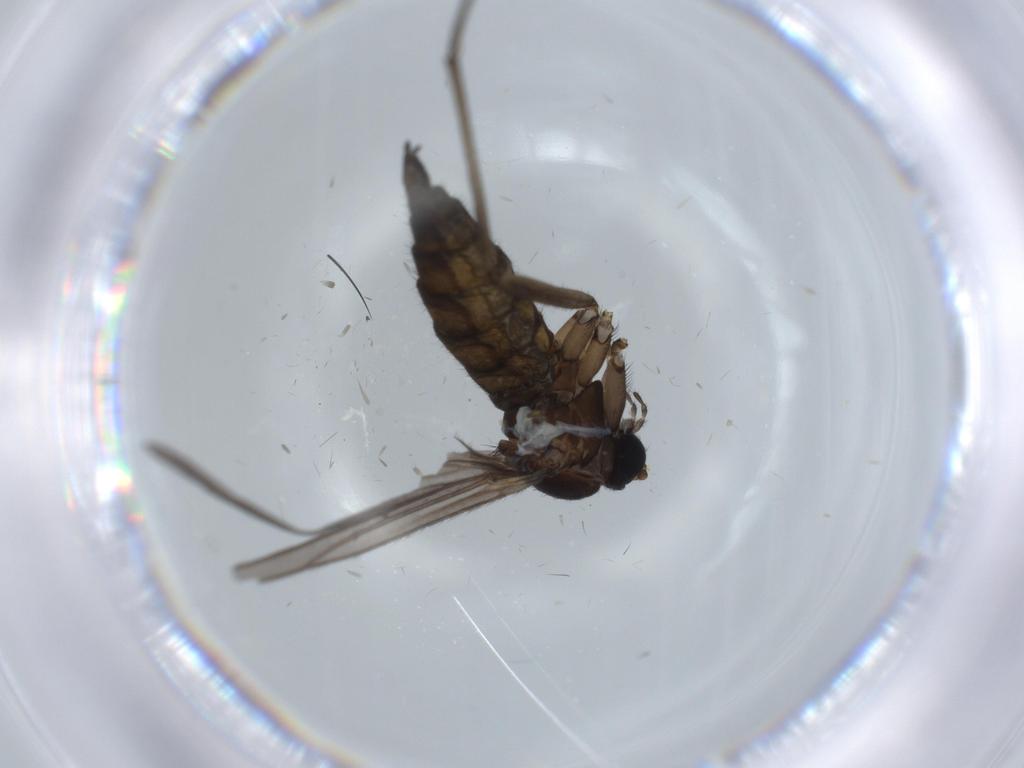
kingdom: Animalia
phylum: Arthropoda
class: Insecta
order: Diptera
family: Sciaridae
